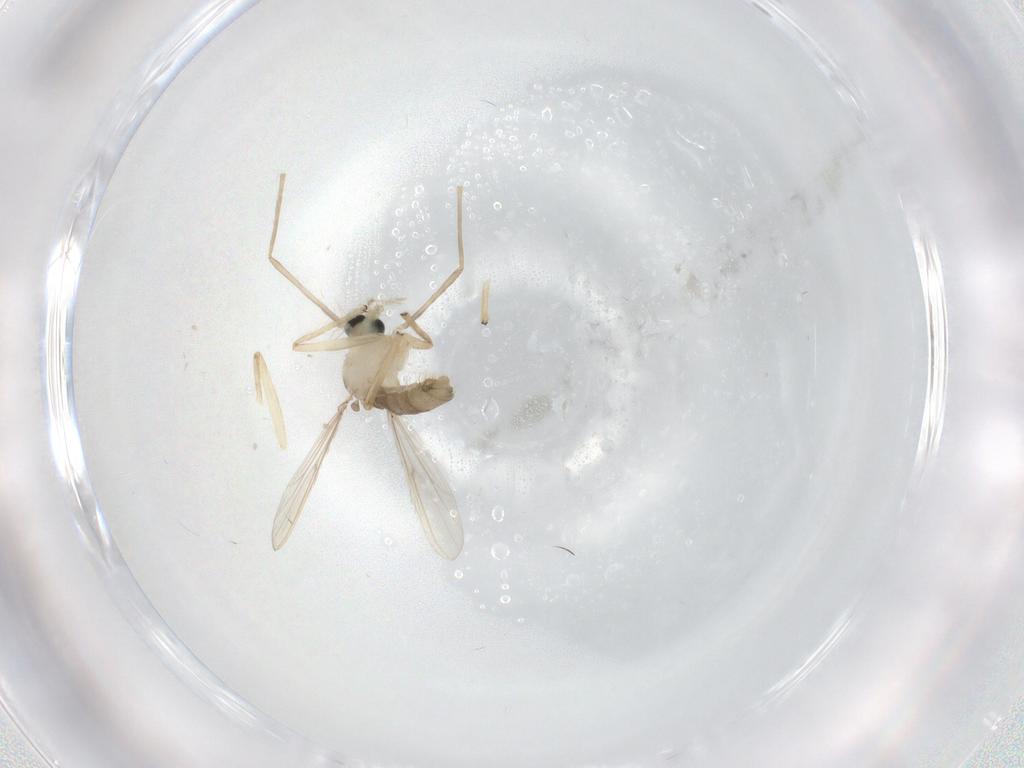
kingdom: Animalia
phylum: Arthropoda
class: Insecta
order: Diptera
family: Chironomidae
